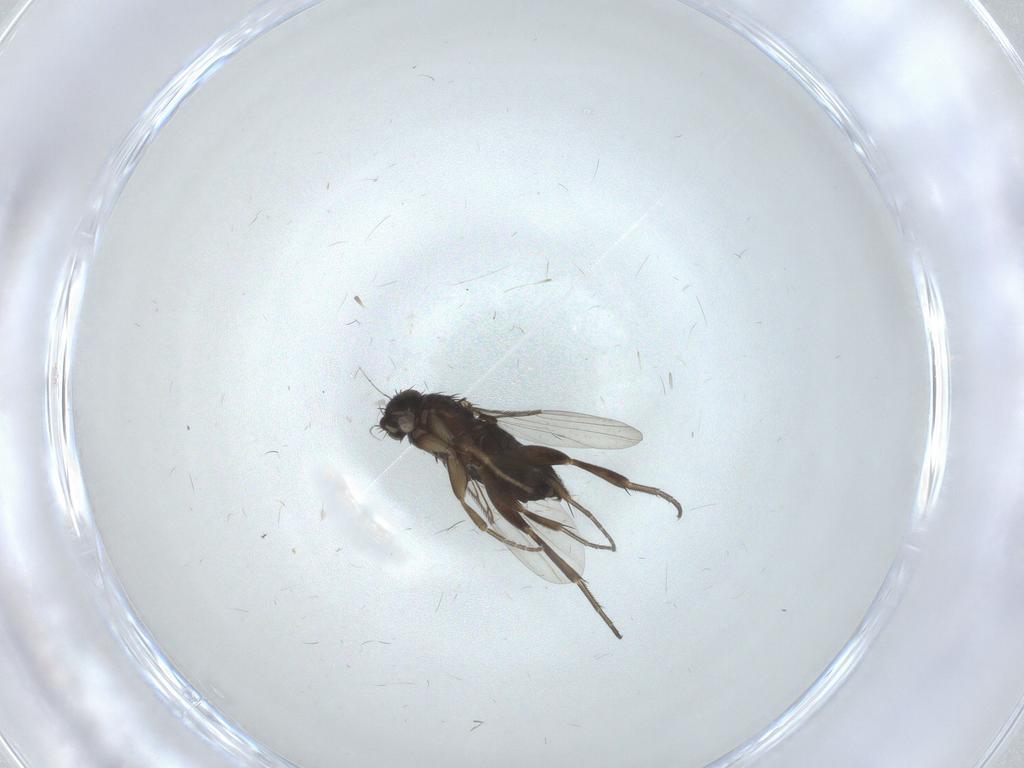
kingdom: Animalia
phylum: Arthropoda
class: Insecta
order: Diptera
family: Phoridae
